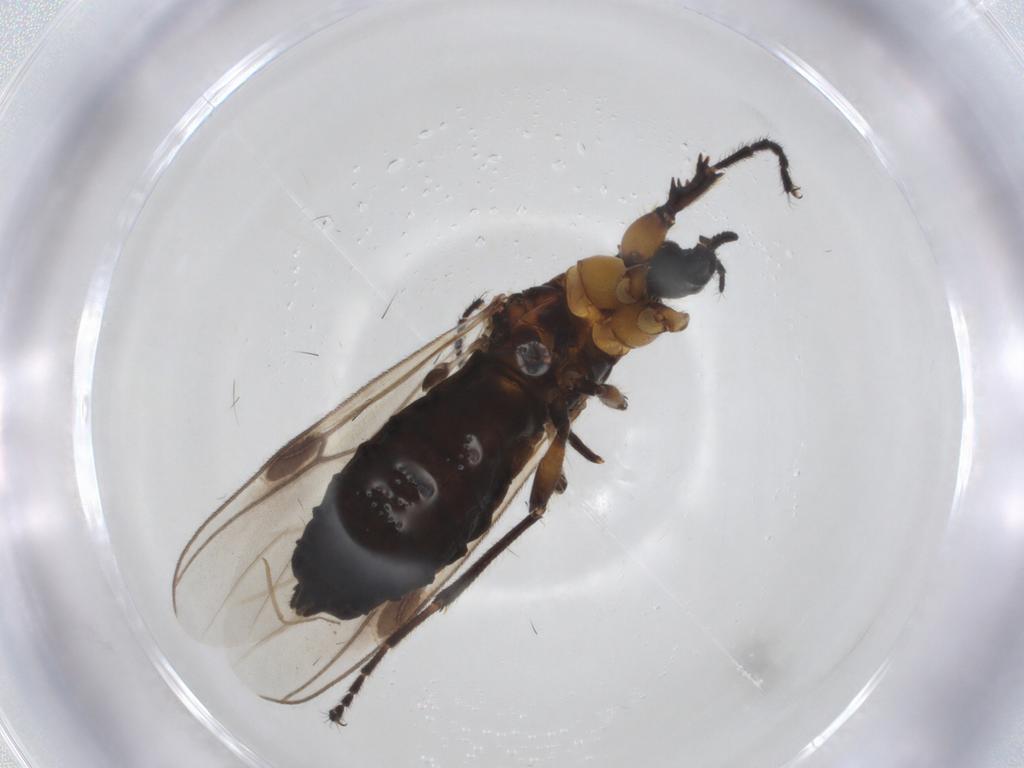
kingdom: Animalia
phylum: Arthropoda
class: Insecta
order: Diptera
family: Bibionidae
